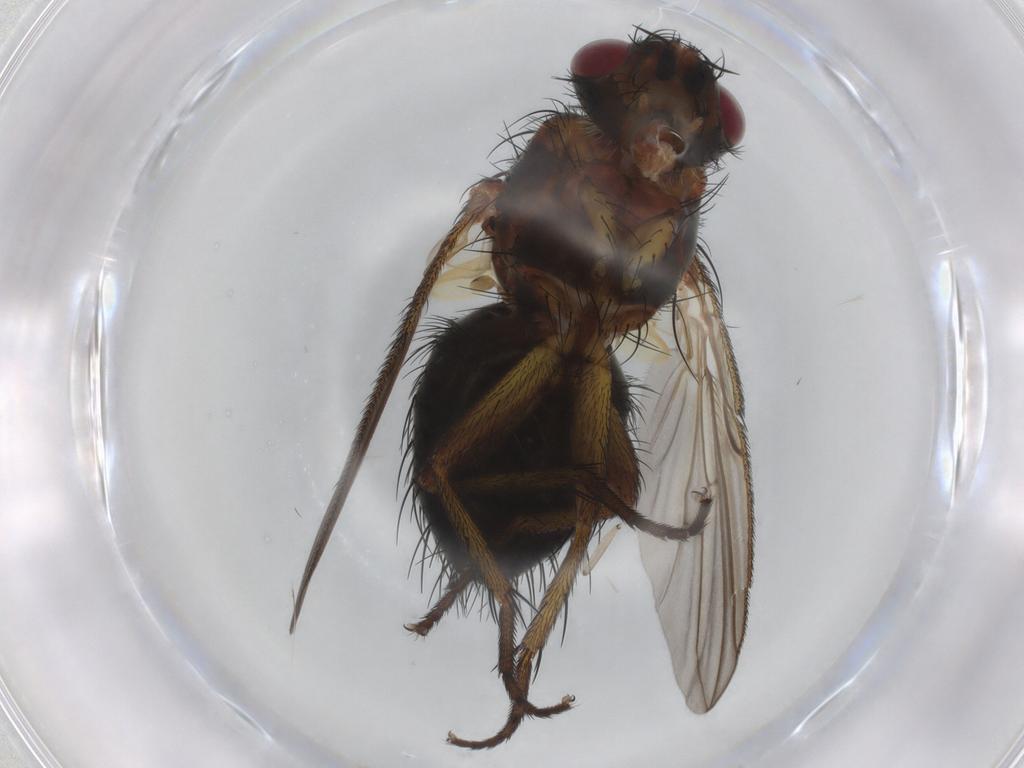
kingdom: Animalia
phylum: Arthropoda
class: Insecta
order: Diptera
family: Tachinidae
